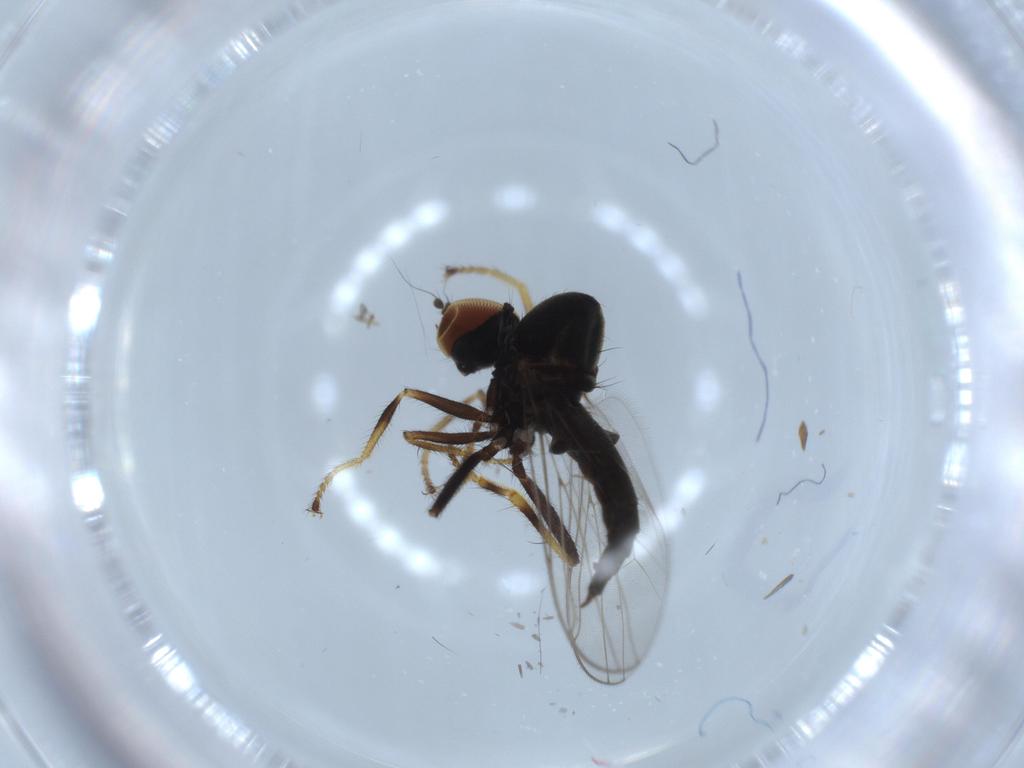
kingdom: Animalia
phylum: Arthropoda
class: Insecta
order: Diptera
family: Hybotidae
